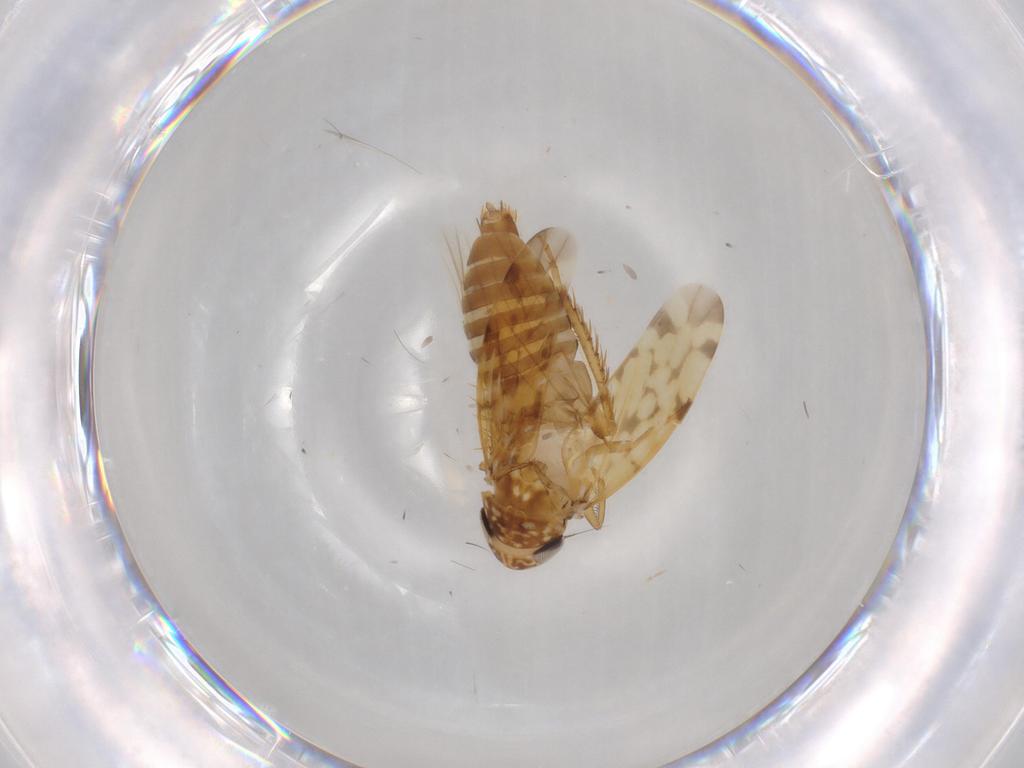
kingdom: Animalia
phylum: Arthropoda
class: Insecta
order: Hemiptera
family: Cicadellidae
